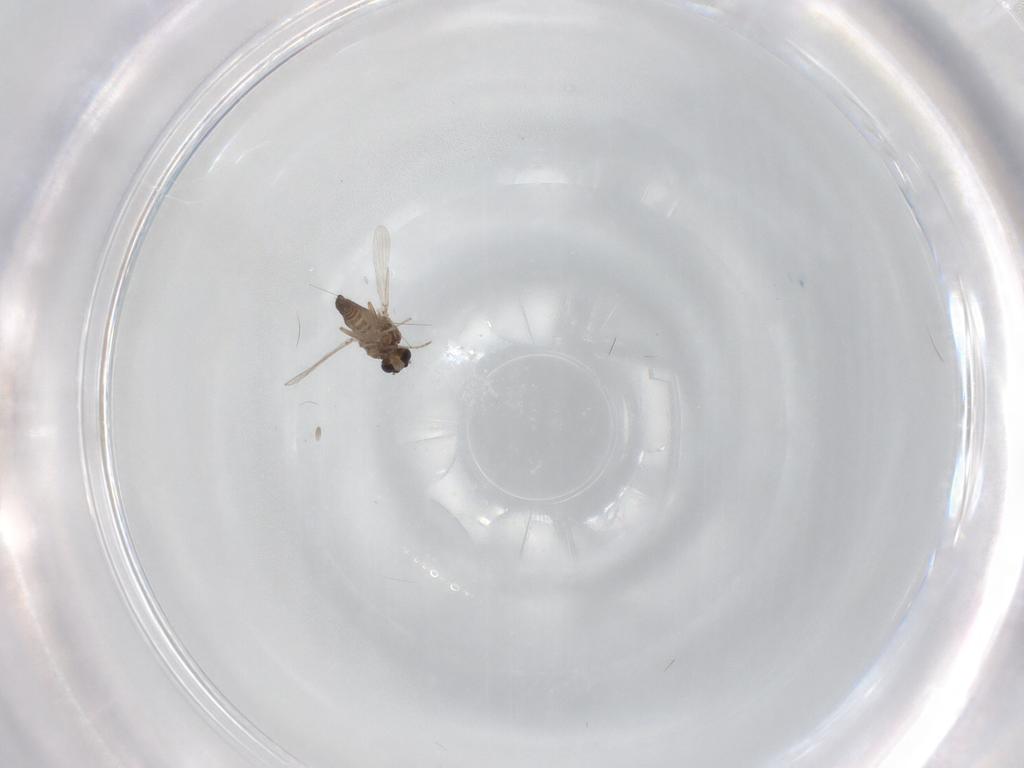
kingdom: Animalia
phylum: Arthropoda
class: Insecta
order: Diptera
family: Ceratopogonidae
